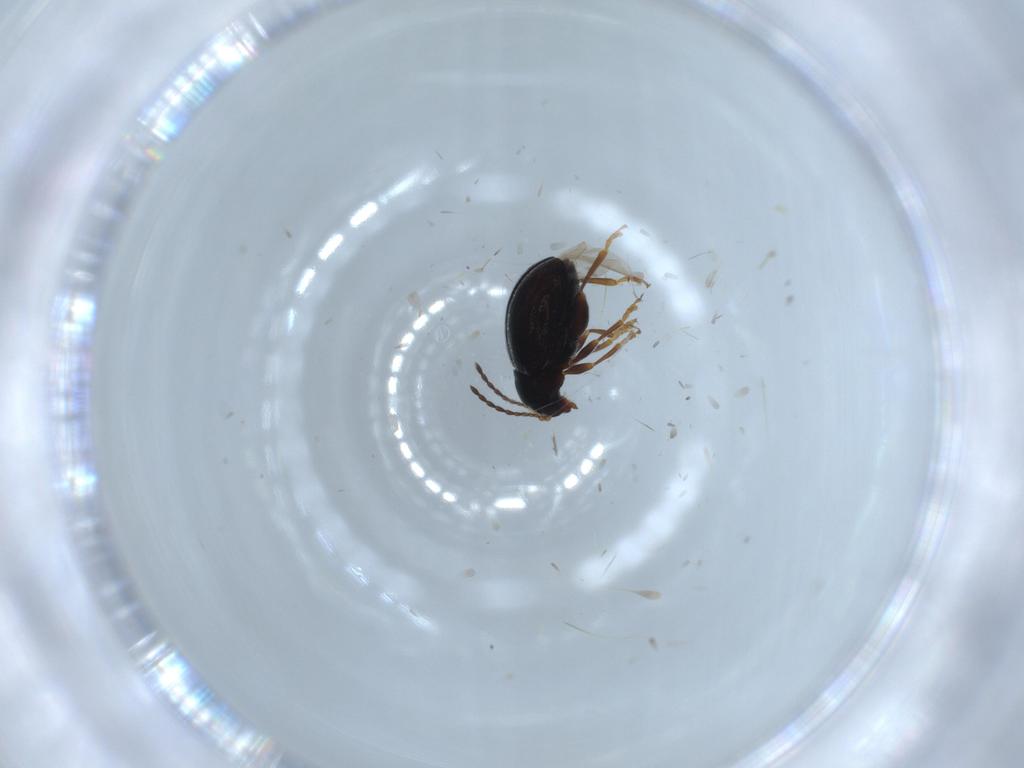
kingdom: Animalia
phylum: Arthropoda
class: Insecta
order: Coleoptera
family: Chrysomelidae
